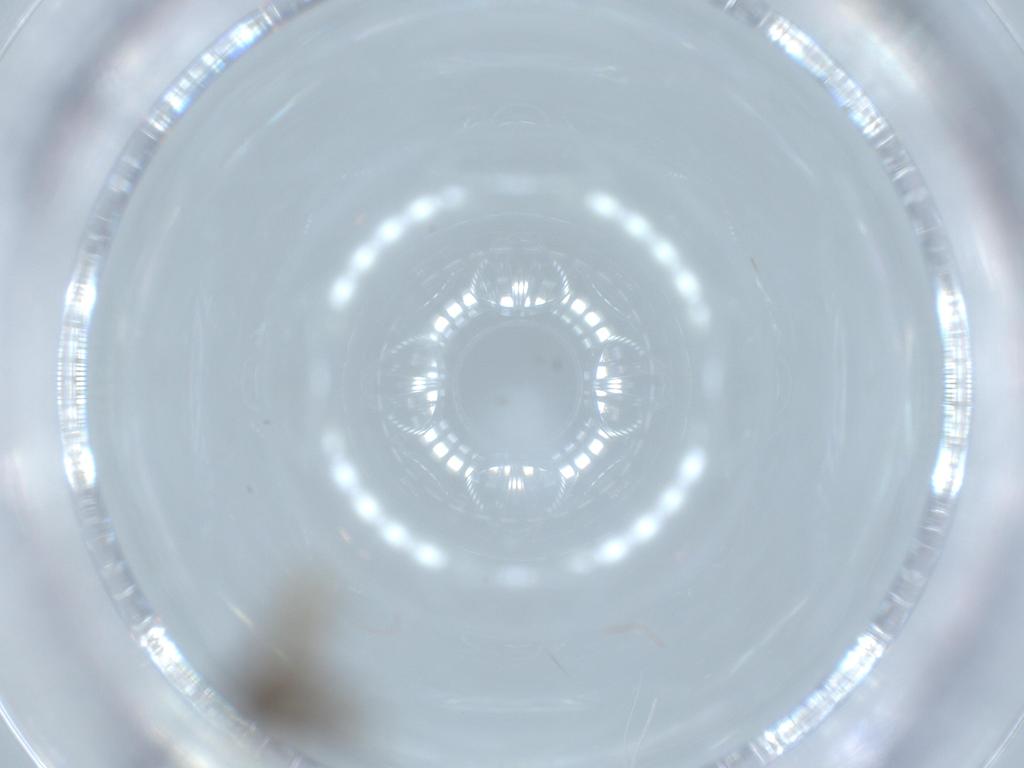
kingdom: Animalia
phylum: Arthropoda
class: Insecta
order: Diptera
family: Phoridae
